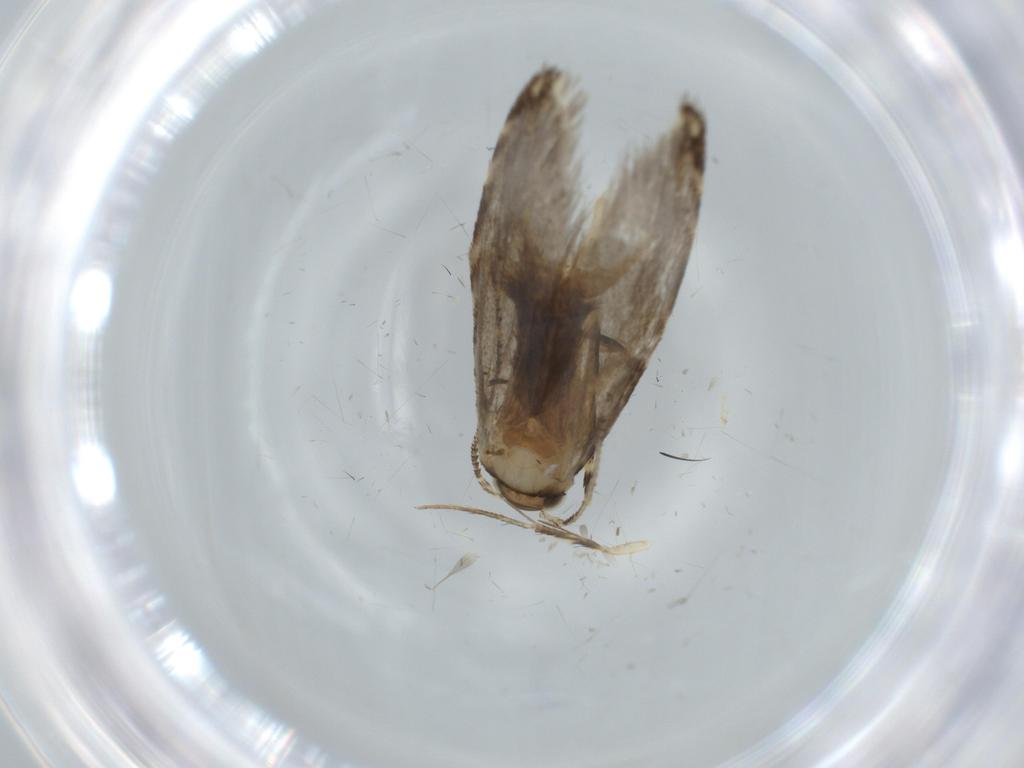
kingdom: Animalia
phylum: Arthropoda
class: Insecta
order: Lepidoptera
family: Tineidae
